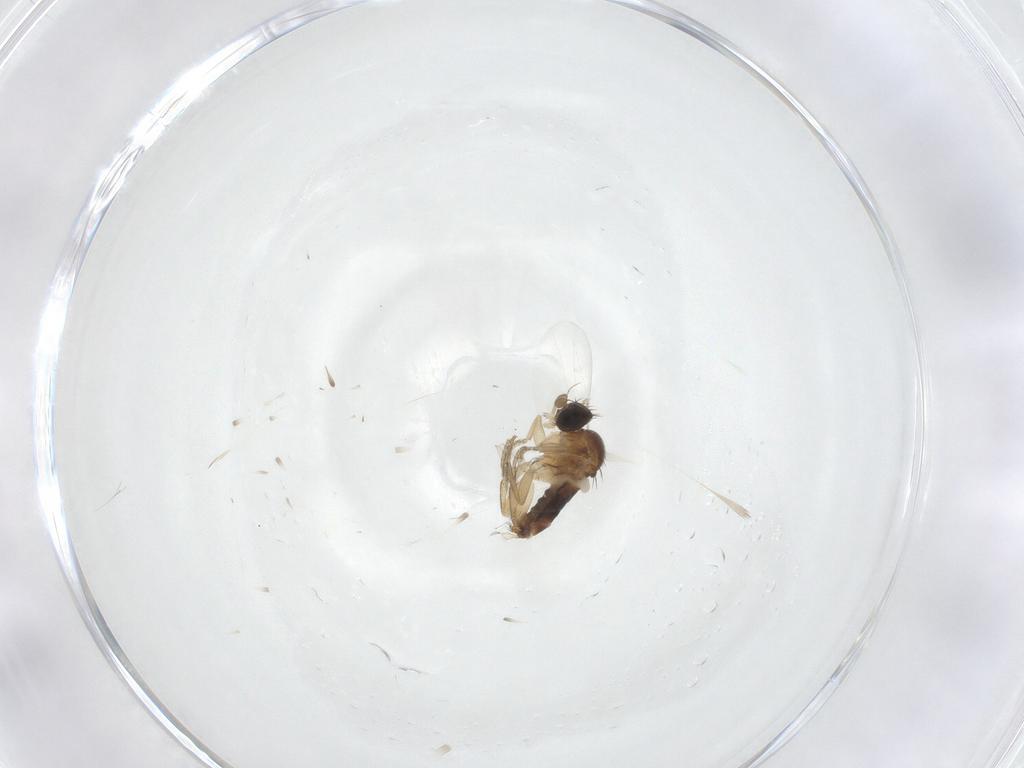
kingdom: Animalia
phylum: Arthropoda
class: Insecta
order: Diptera
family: Phoridae
